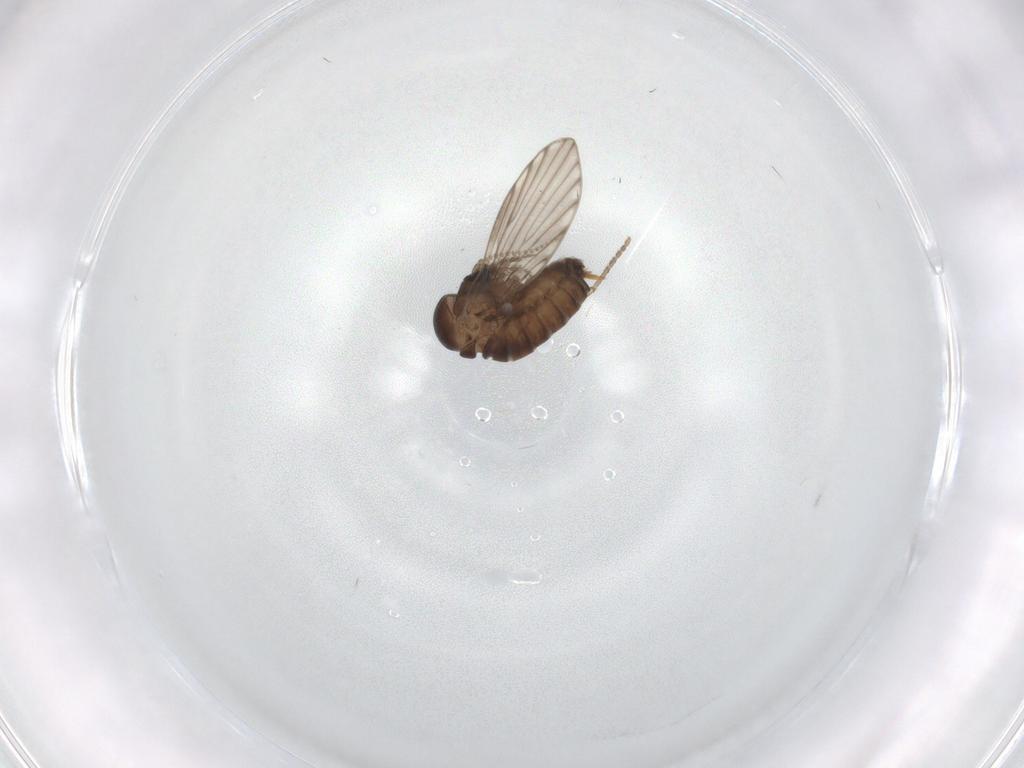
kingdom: Animalia
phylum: Arthropoda
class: Insecta
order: Diptera
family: Psychodidae
